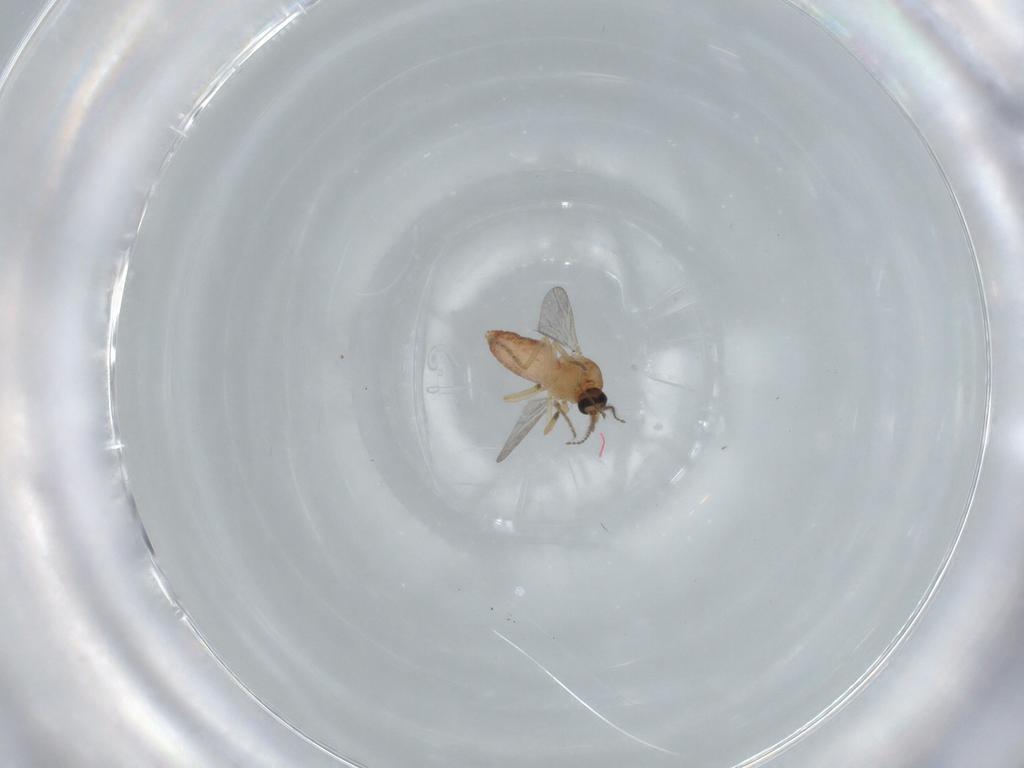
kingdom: Animalia
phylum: Arthropoda
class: Insecta
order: Diptera
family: Ceratopogonidae
